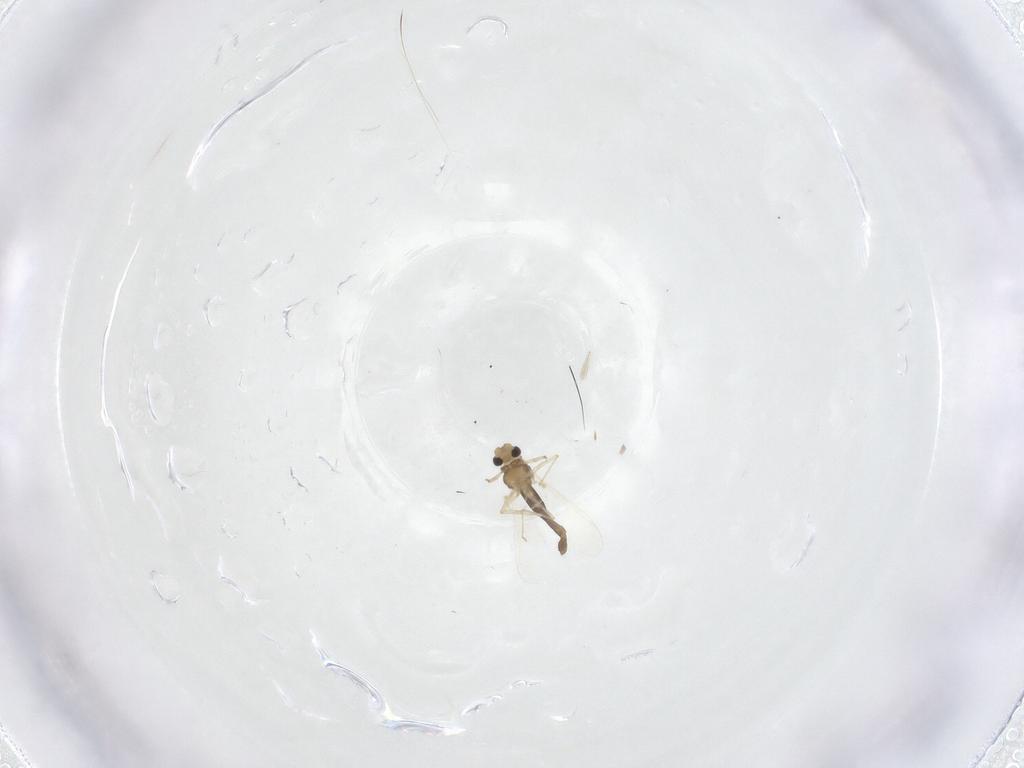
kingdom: Animalia
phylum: Arthropoda
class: Insecta
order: Diptera
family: Chironomidae
